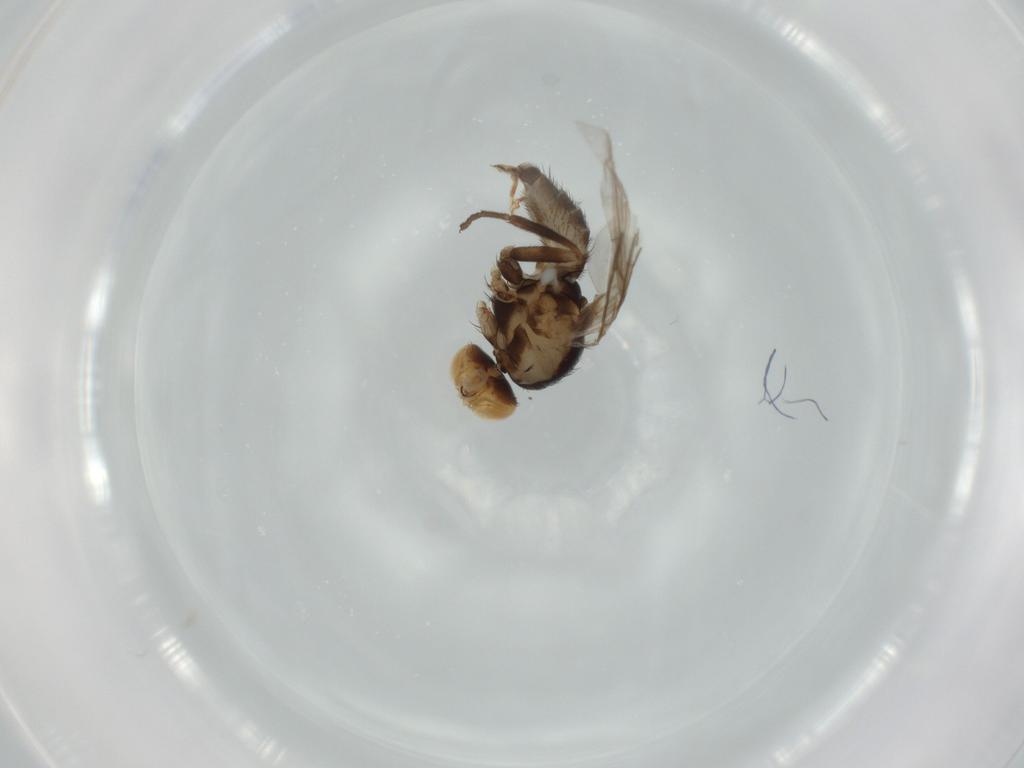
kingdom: Animalia
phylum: Arthropoda
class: Insecta
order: Diptera
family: Agromyzidae
